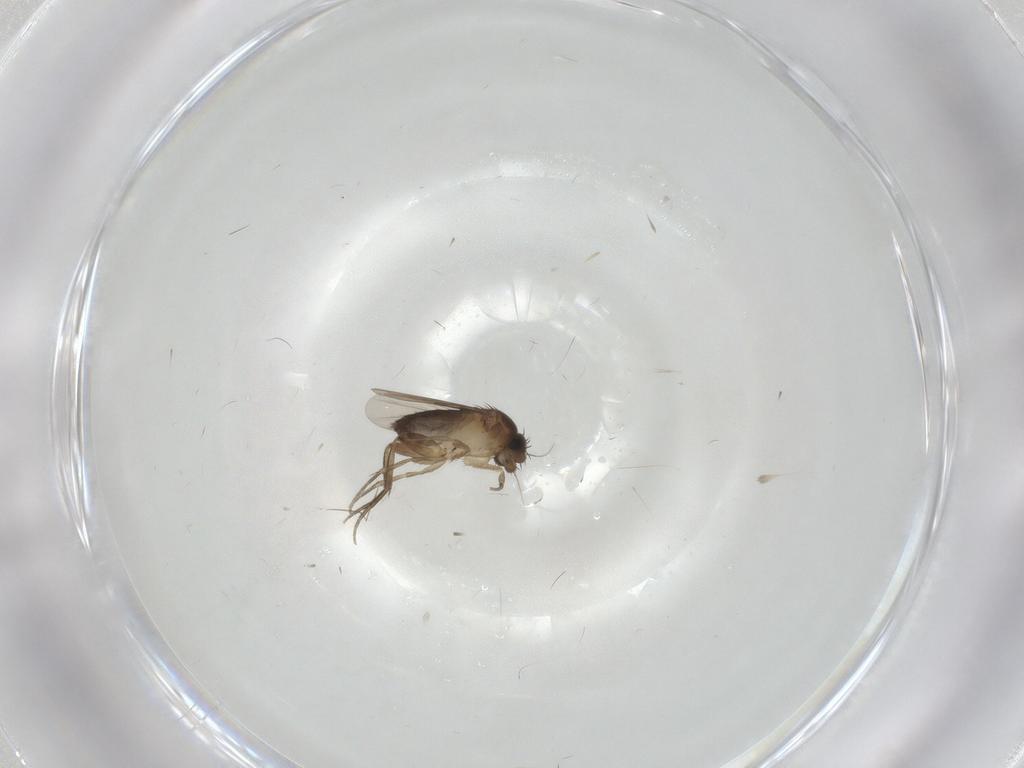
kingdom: Animalia
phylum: Arthropoda
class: Insecta
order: Diptera
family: Phoridae
